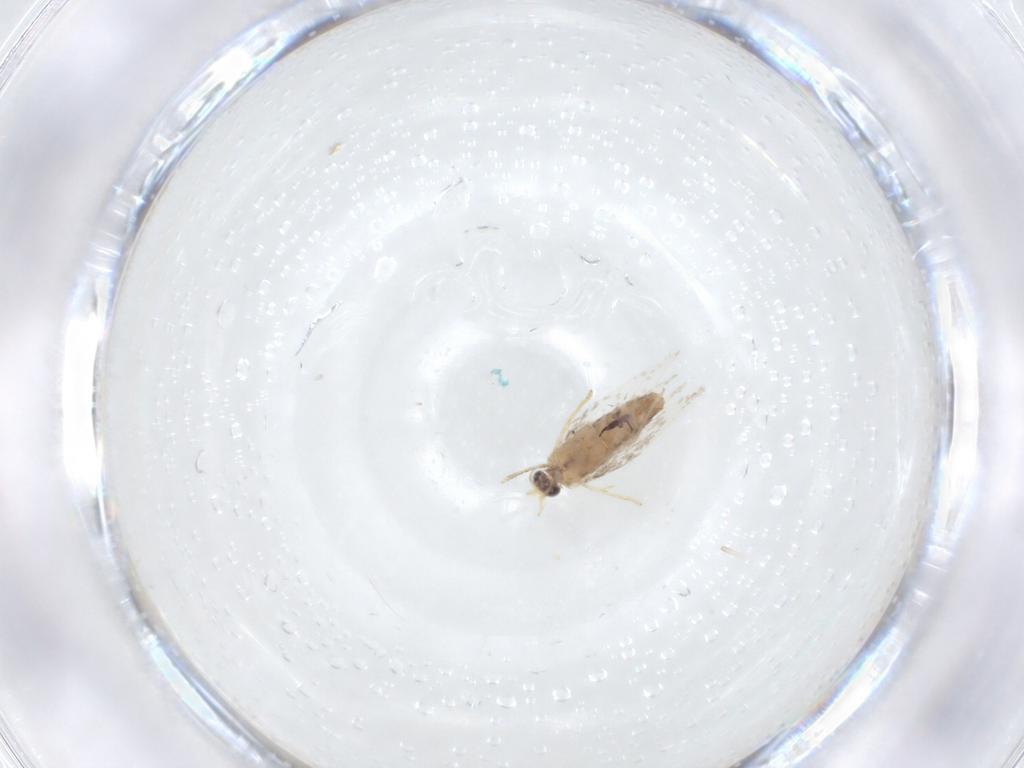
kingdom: Animalia
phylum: Arthropoda
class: Insecta
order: Lepidoptera
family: Nepticulidae
